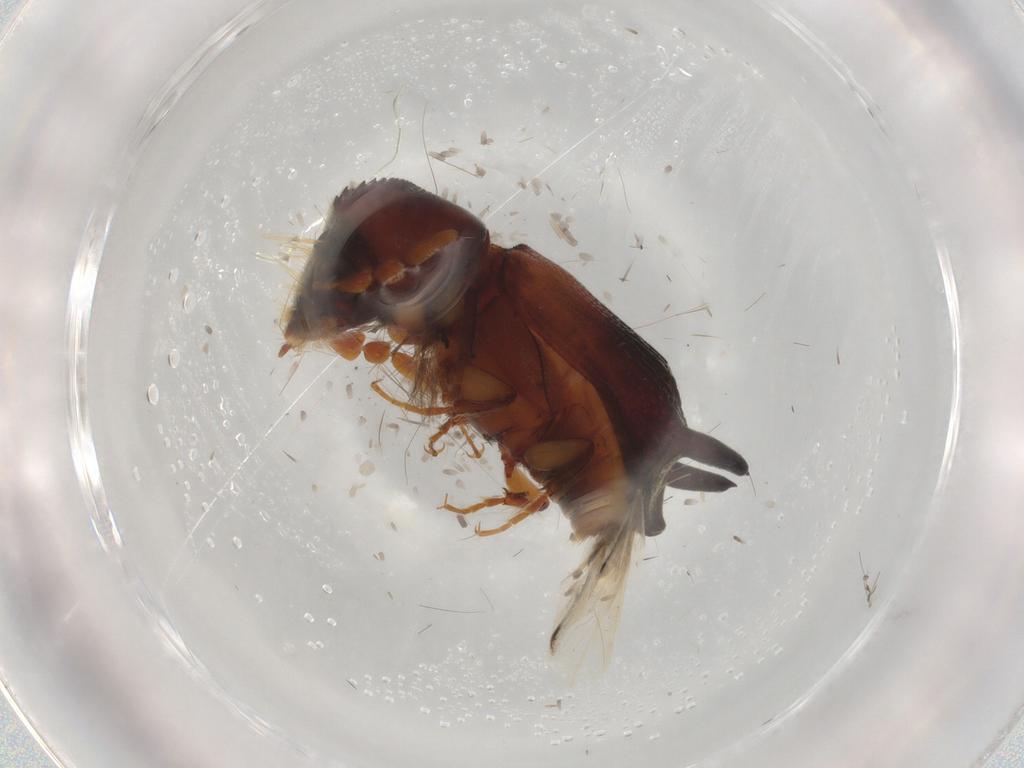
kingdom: Animalia
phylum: Arthropoda
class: Insecta
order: Coleoptera
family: Bostrichidae
